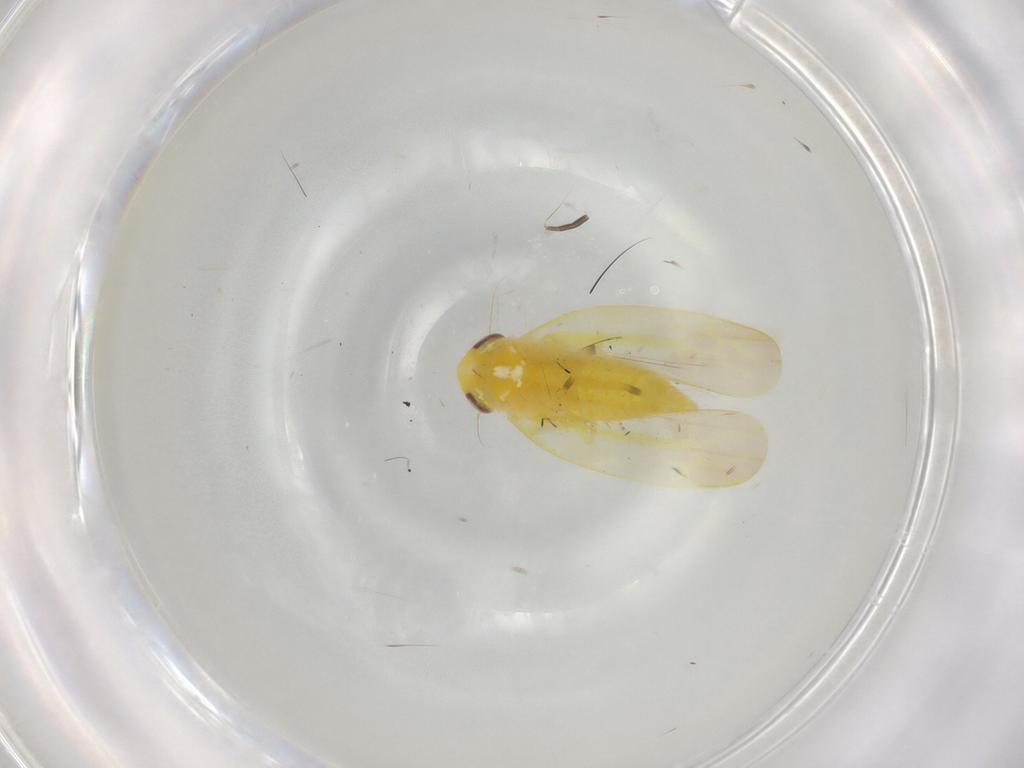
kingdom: Animalia
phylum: Arthropoda
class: Insecta
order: Hemiptera
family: Cicadellidae
